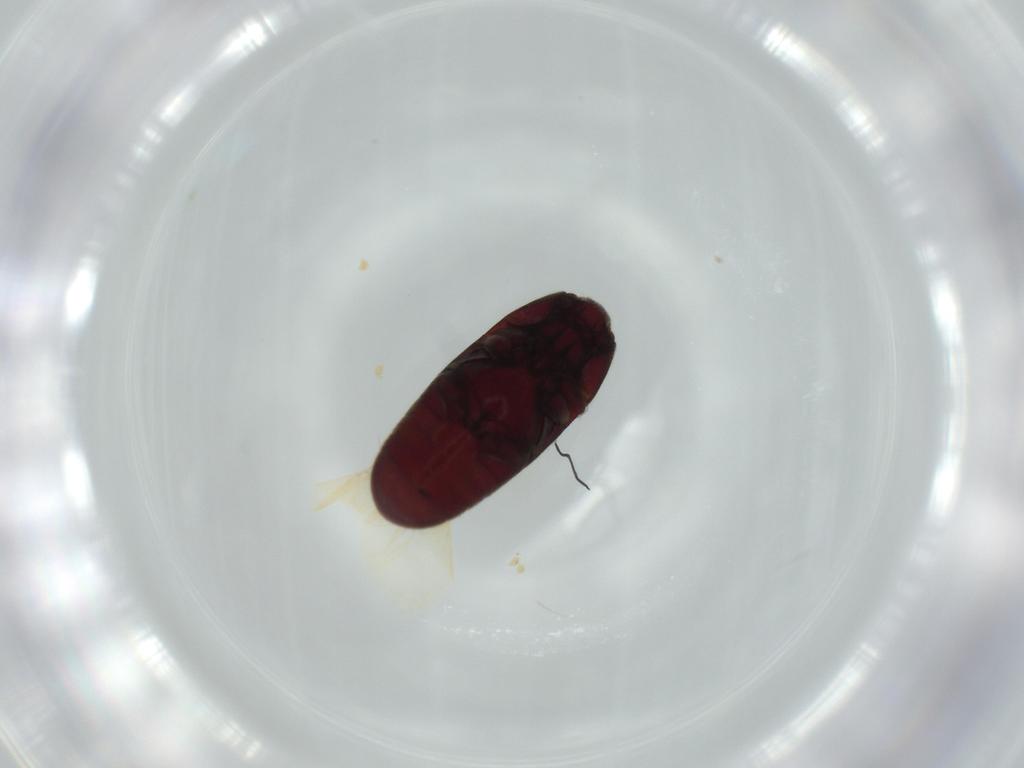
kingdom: Animalia
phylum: Arthropoda
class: Insecta
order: Coleoptera
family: Throscidae
